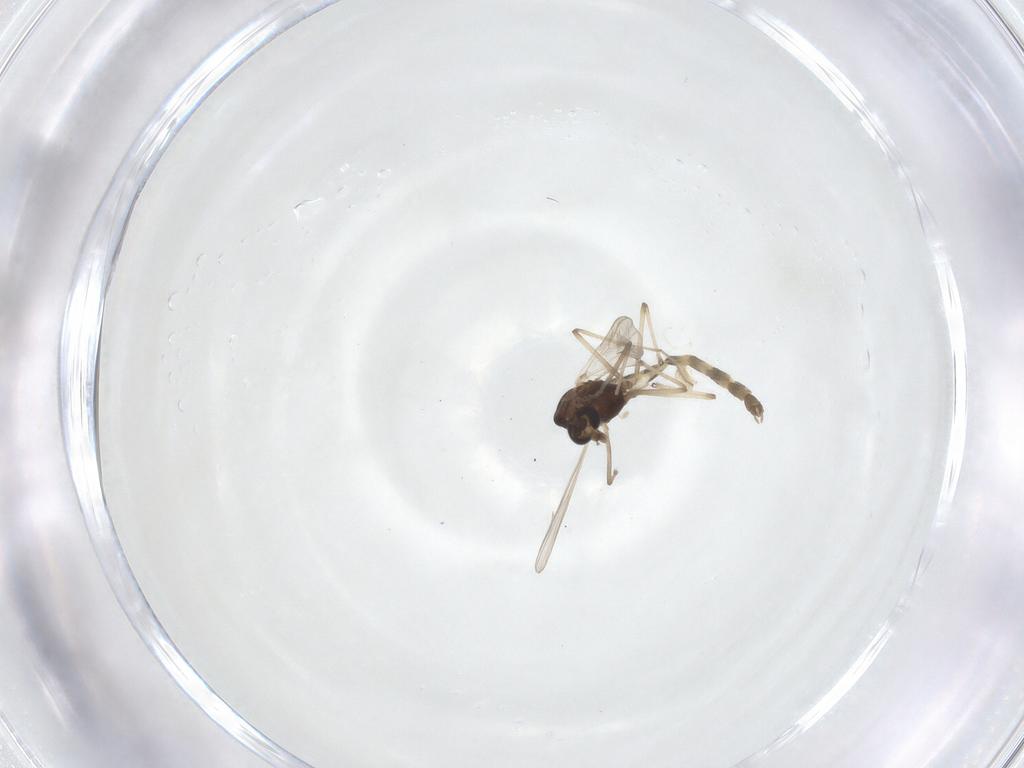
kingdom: Animalia
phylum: Arthropoda
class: Insecta
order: Diptera
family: Chironomidae
